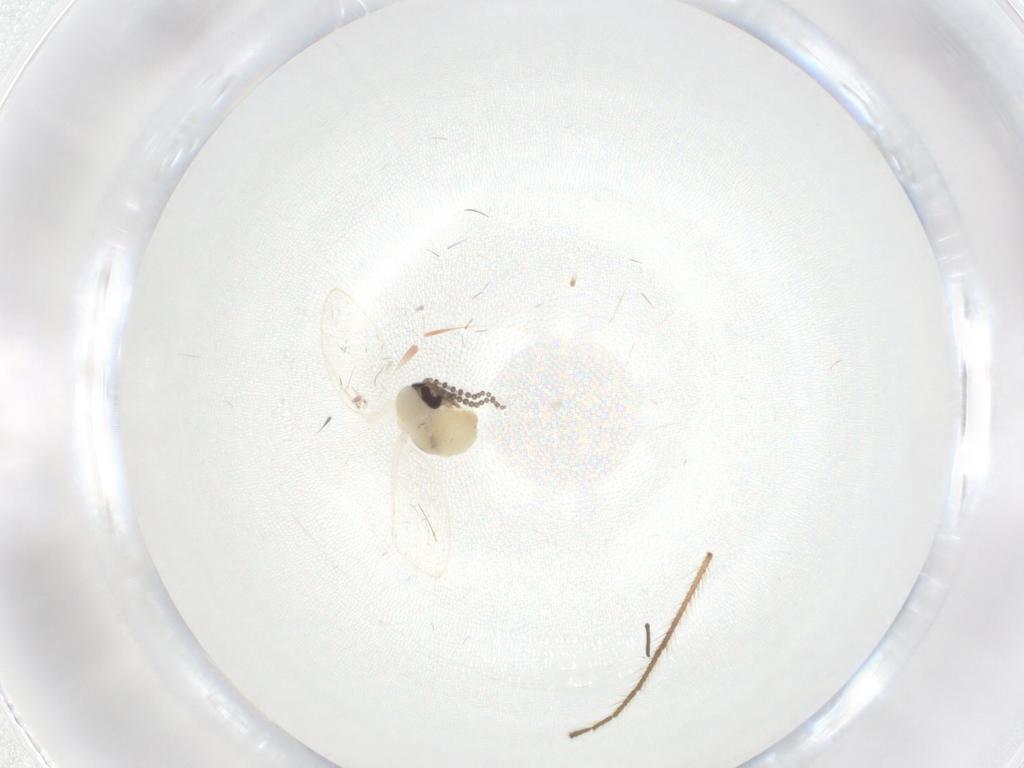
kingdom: Animalia
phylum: Arthropoda
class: Insecta
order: Diptera
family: Psychodidae
